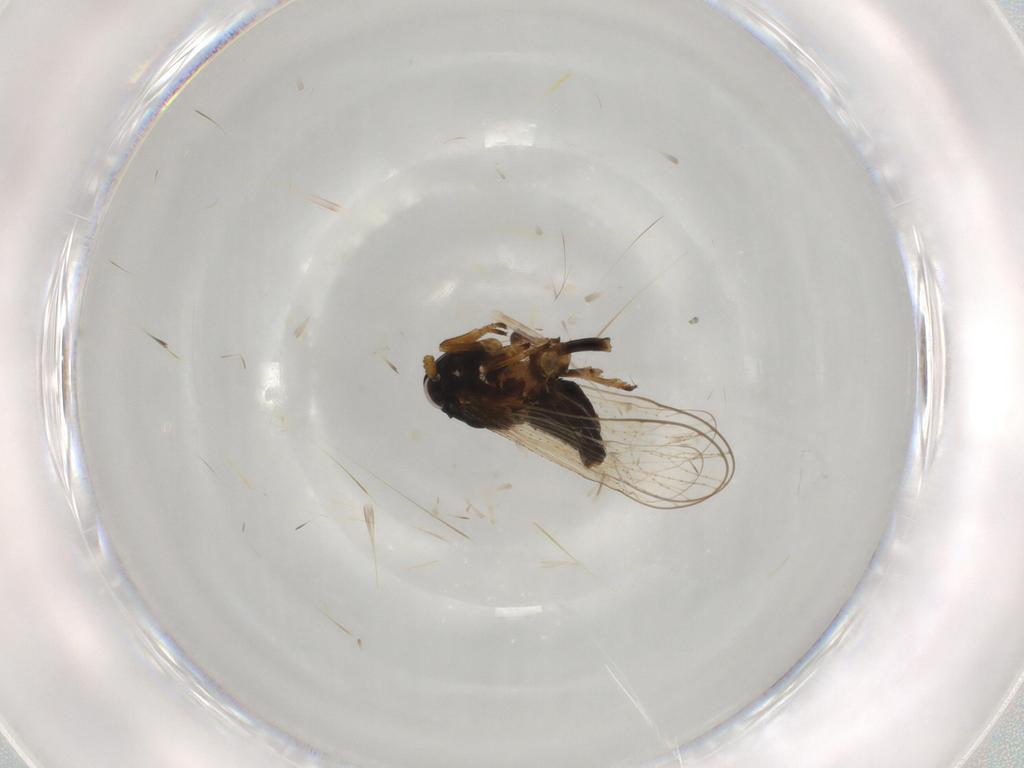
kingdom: Animalia
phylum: Arthropoda
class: Insecta
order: Hemiptera
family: Delphacidae
